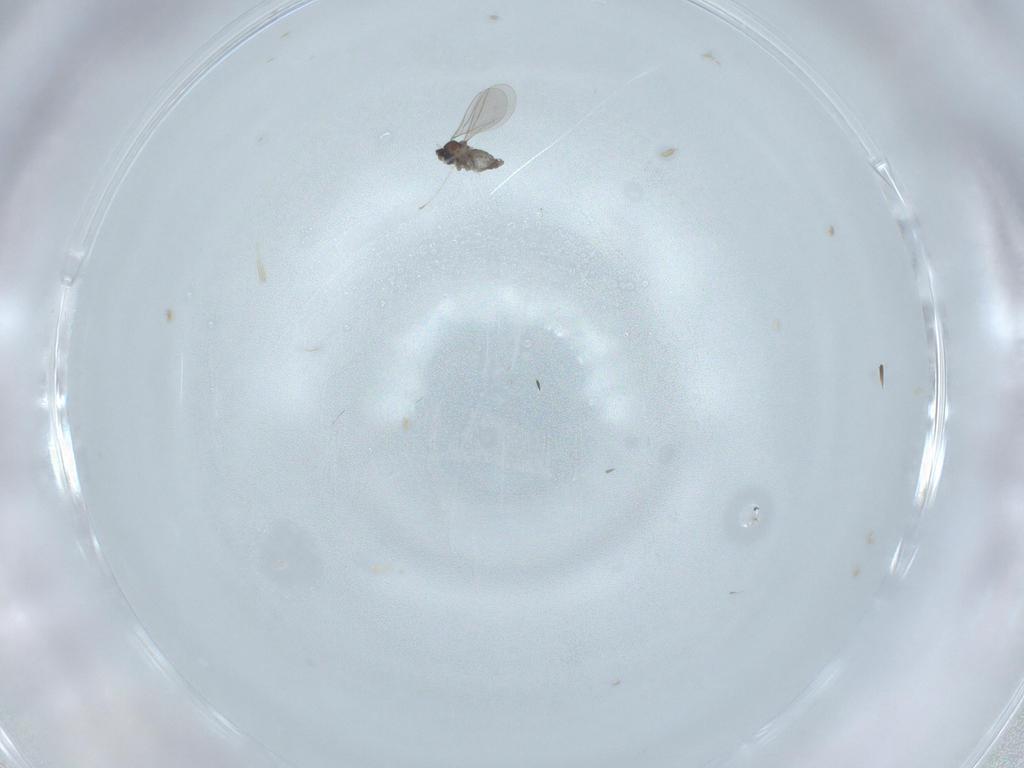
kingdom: Animalia
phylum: Arthropoda
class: Insecta
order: Diptera
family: Cecidomyiidae
